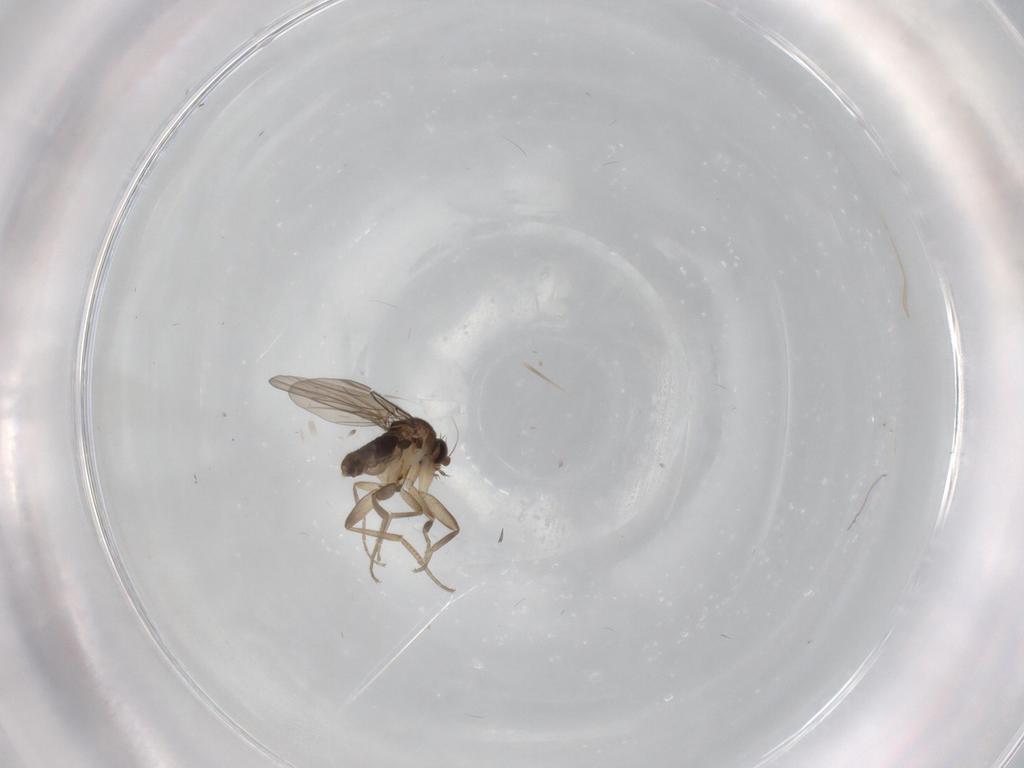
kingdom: Animalia
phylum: Arthropoda
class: Insecta
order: Diptera
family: Phoridae
